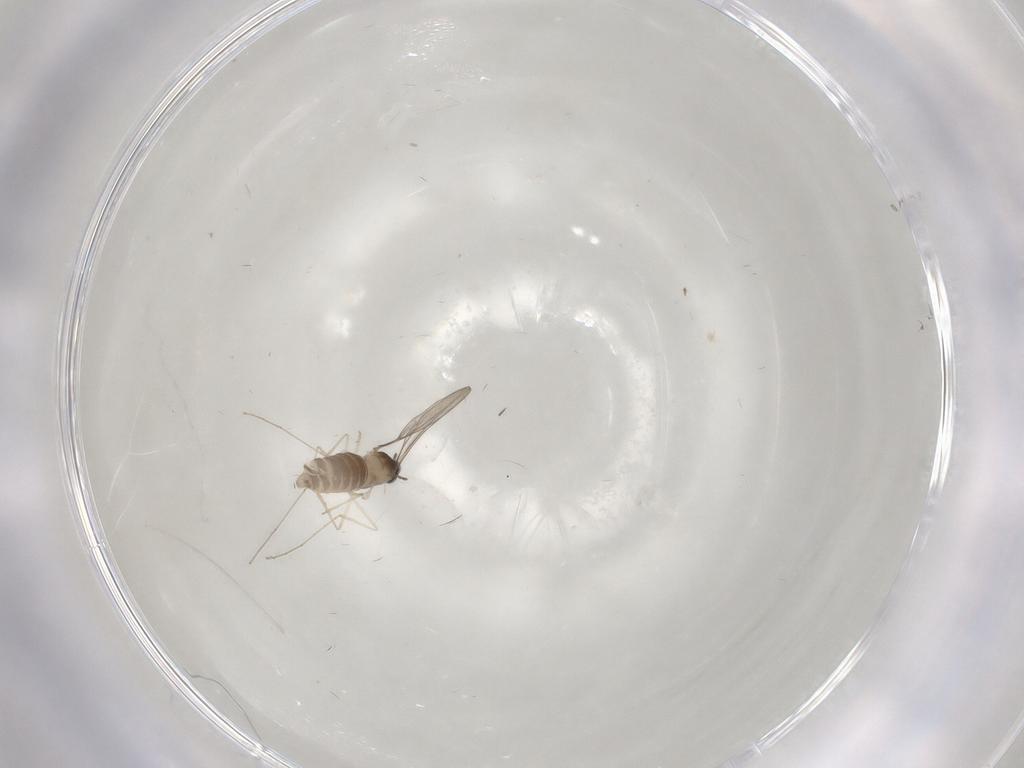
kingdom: Animalia
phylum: Arthropoda
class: Insecta
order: Diptera
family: Cecidomyiidae
